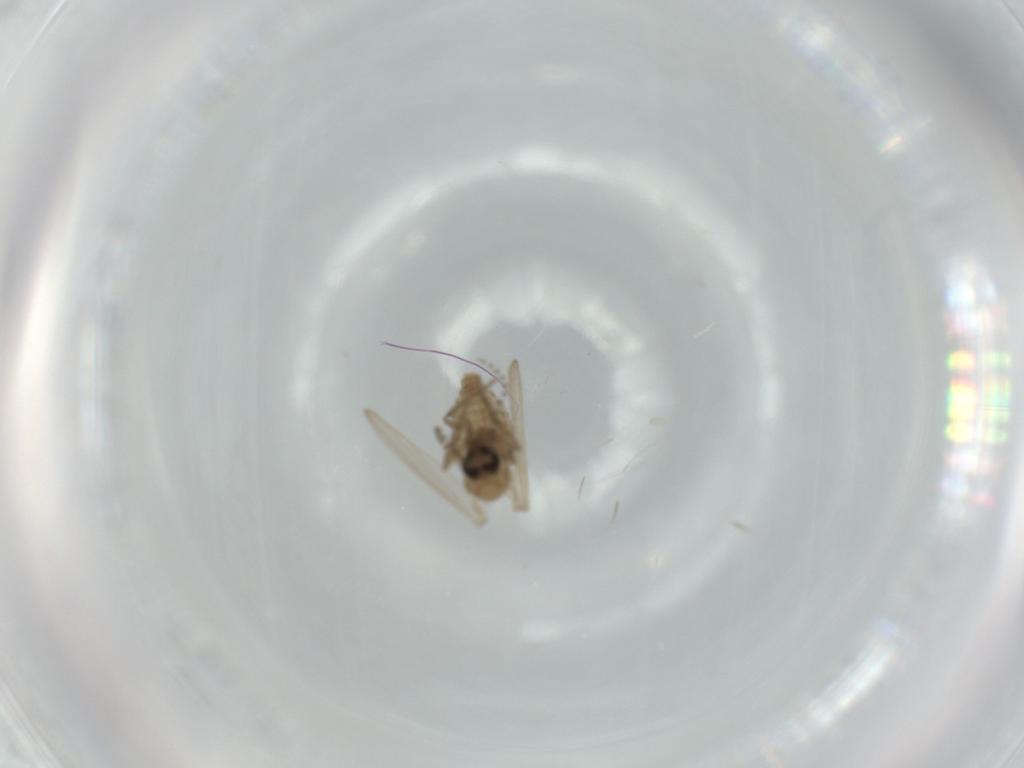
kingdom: Animalia
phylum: Arthropoda
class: Insecta
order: Diptera
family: Psychodidae
